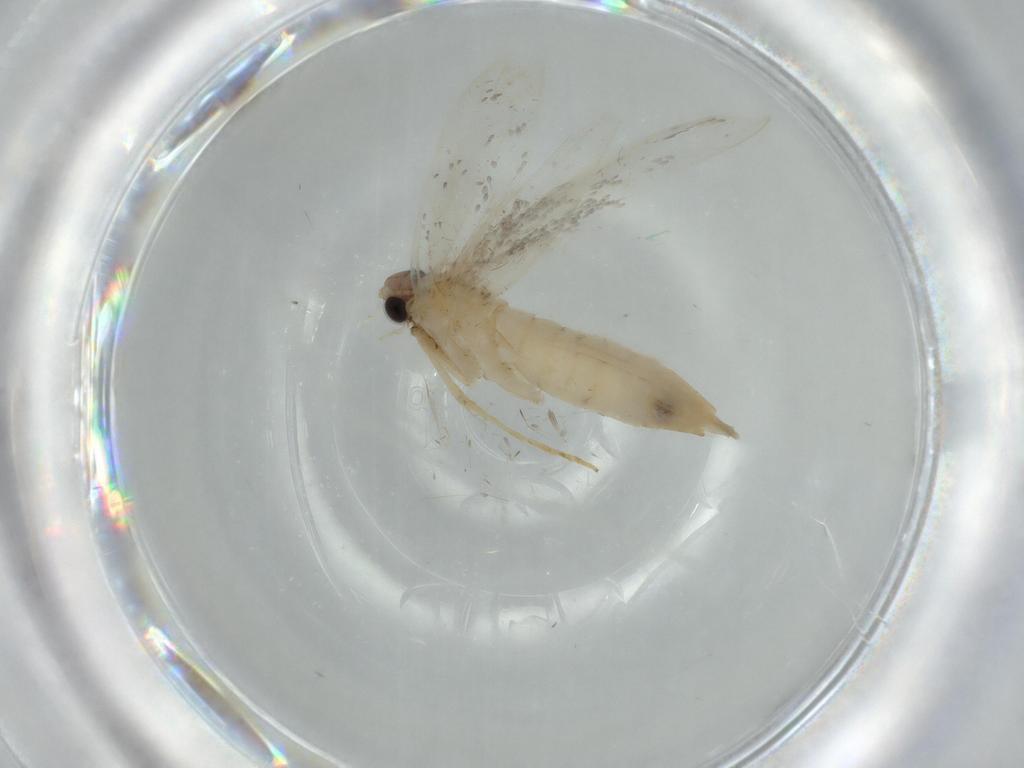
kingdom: Animalia
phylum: Arthropoda
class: Insecta
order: Lepidoptera
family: Tineidae
